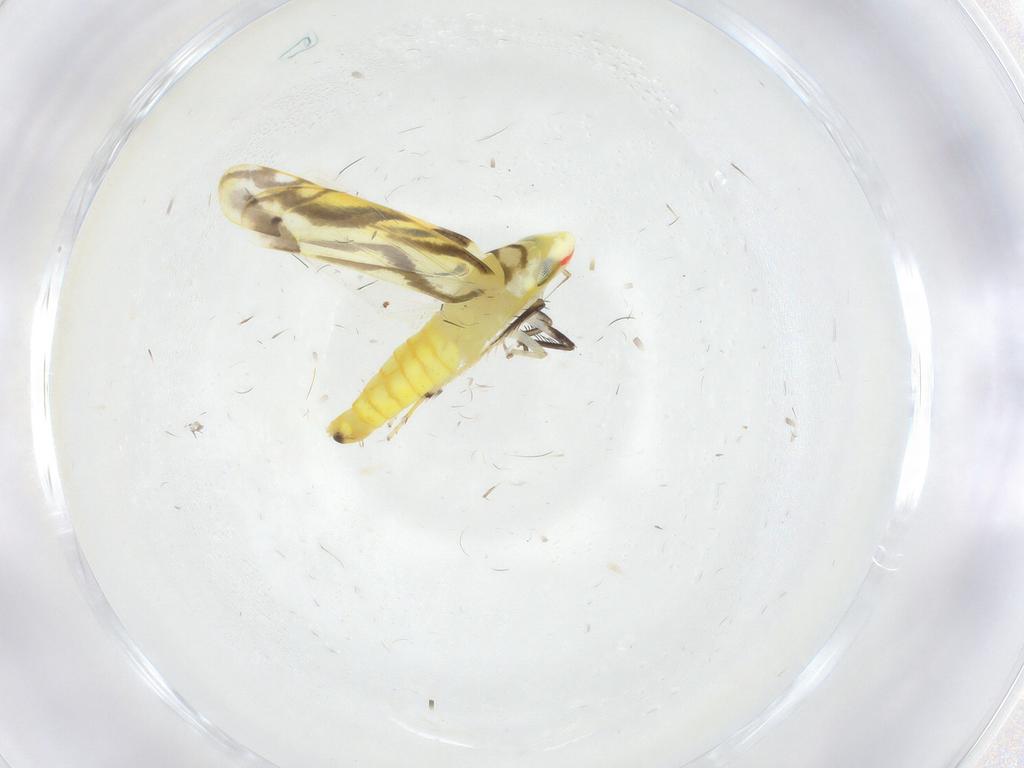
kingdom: Animalia
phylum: Arthropoda
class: Insecta
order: Hemiptera
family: Cicadellidae
